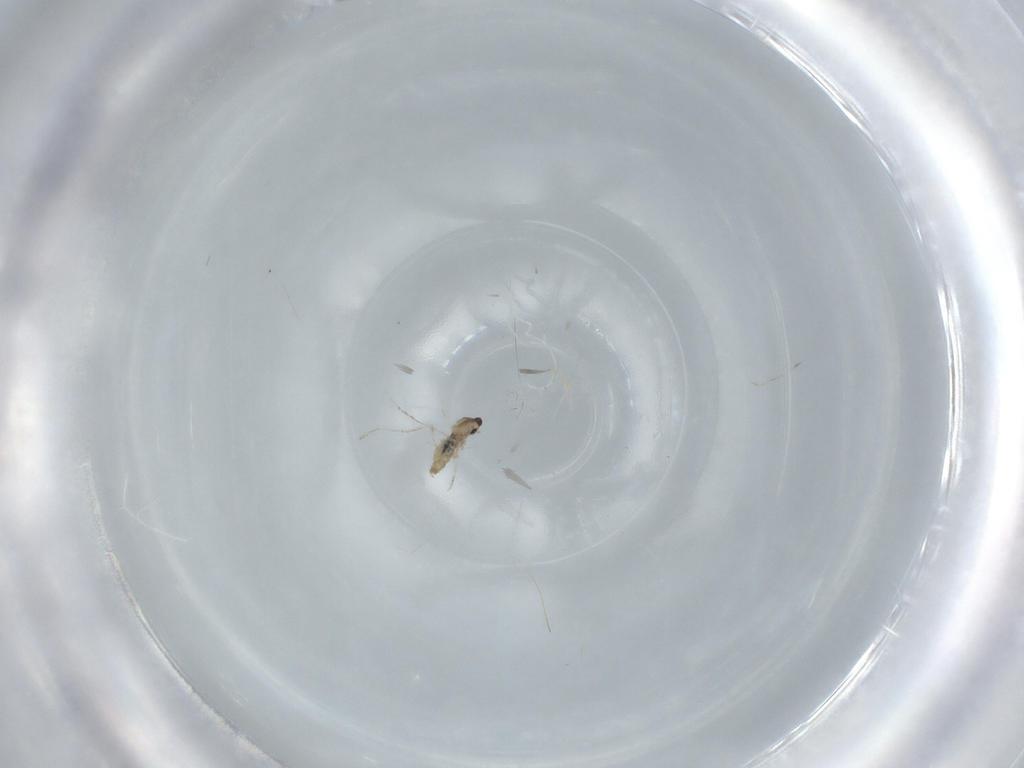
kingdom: Animalia
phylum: Arthropoda
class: Insecta
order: Diptera
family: Cecidomyiidae
